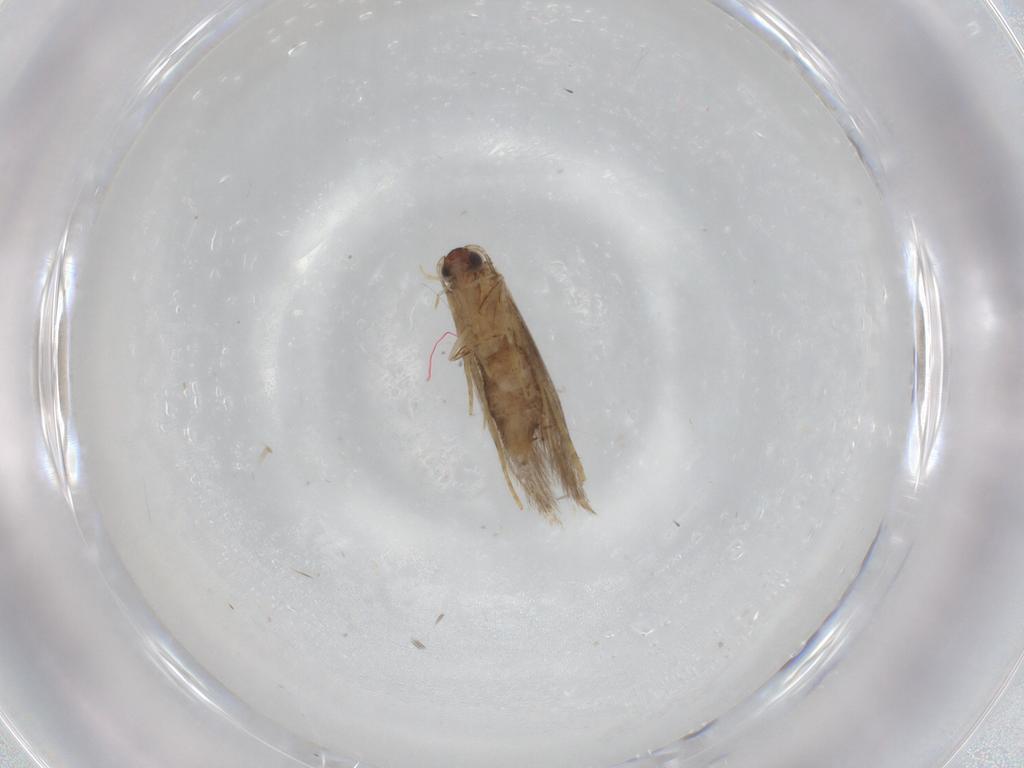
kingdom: Animalia
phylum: Arthropoda
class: Insecta
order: Lepidoptera
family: Tineidae
